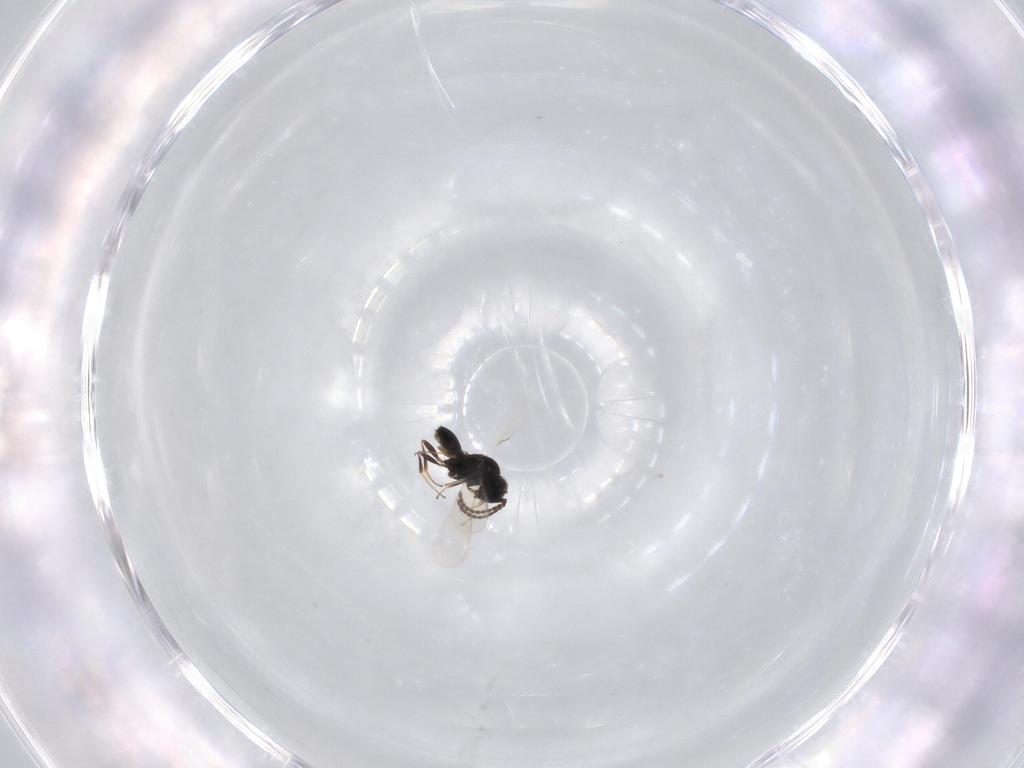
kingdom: Animalia
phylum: Arthropoda
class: Insecta
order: Hymenoptera
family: Scelionidae
